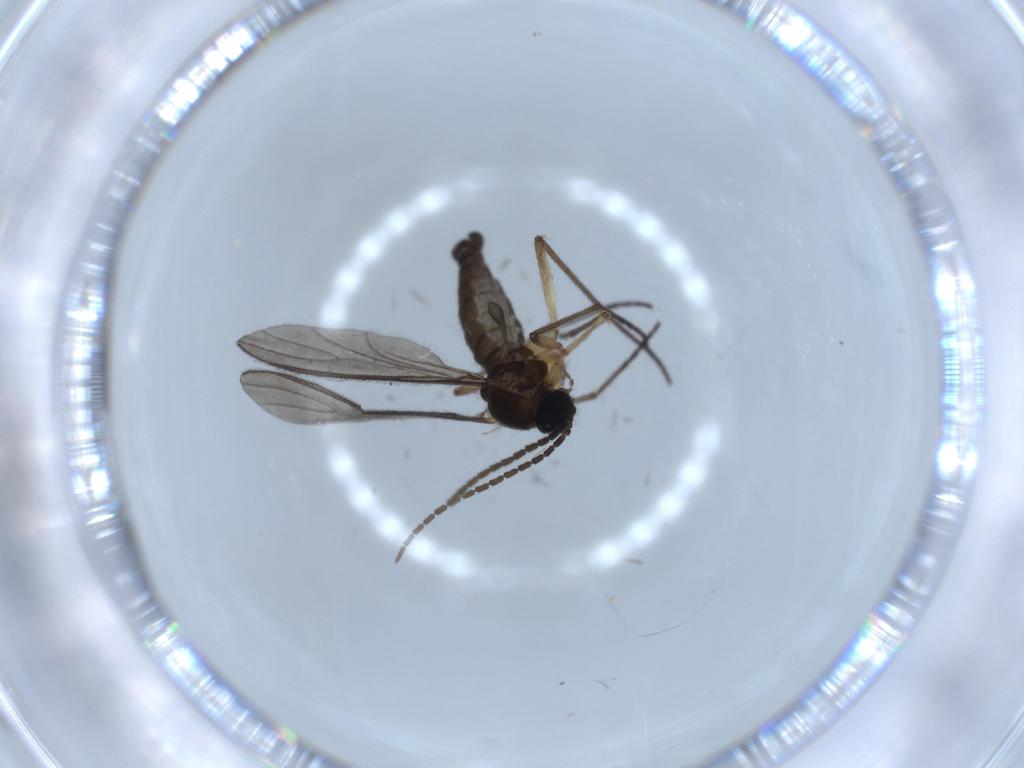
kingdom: Animalia
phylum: Arthropoda
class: Insecta
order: Diptera
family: Sciaridae
